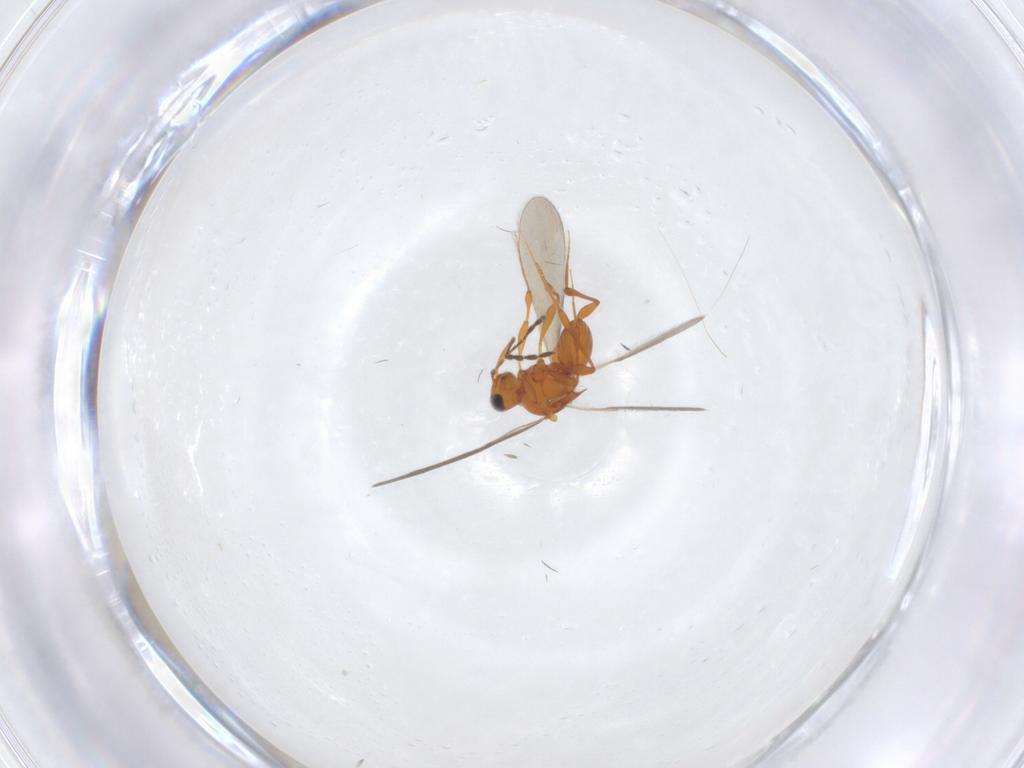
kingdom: Animalia
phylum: Arthropoda
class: Insecta
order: Hymenoptera
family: Platygastridae
